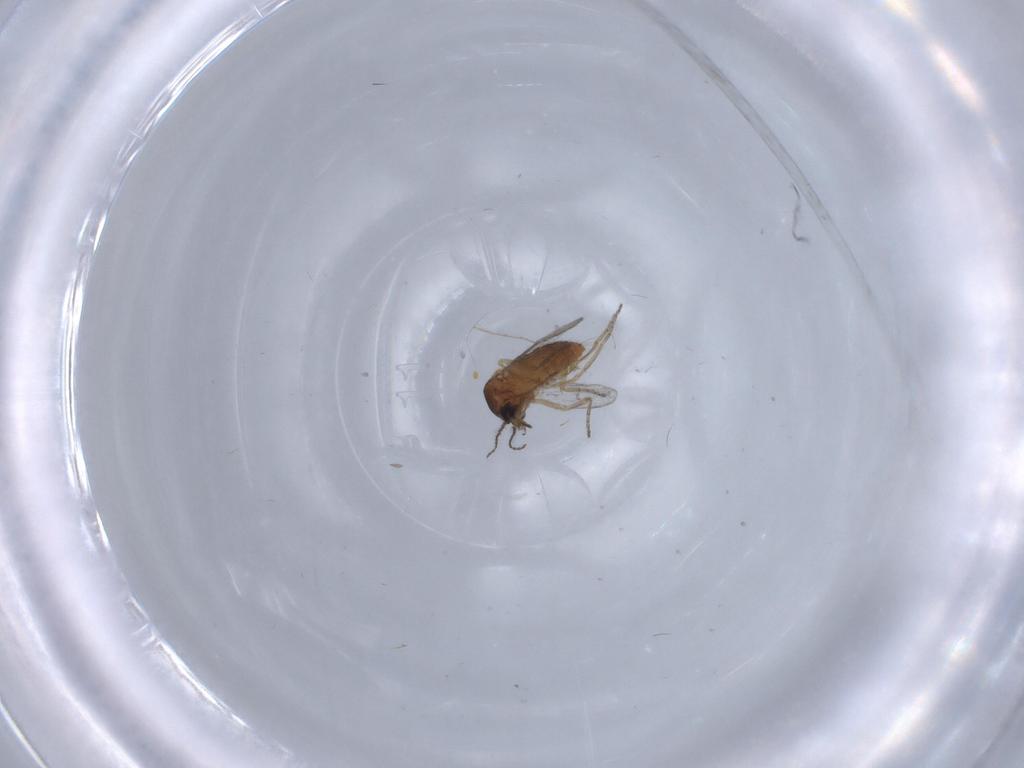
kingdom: Animalia
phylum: Arthropoda
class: Insecta
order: Diptera
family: Ceratopogonidae
